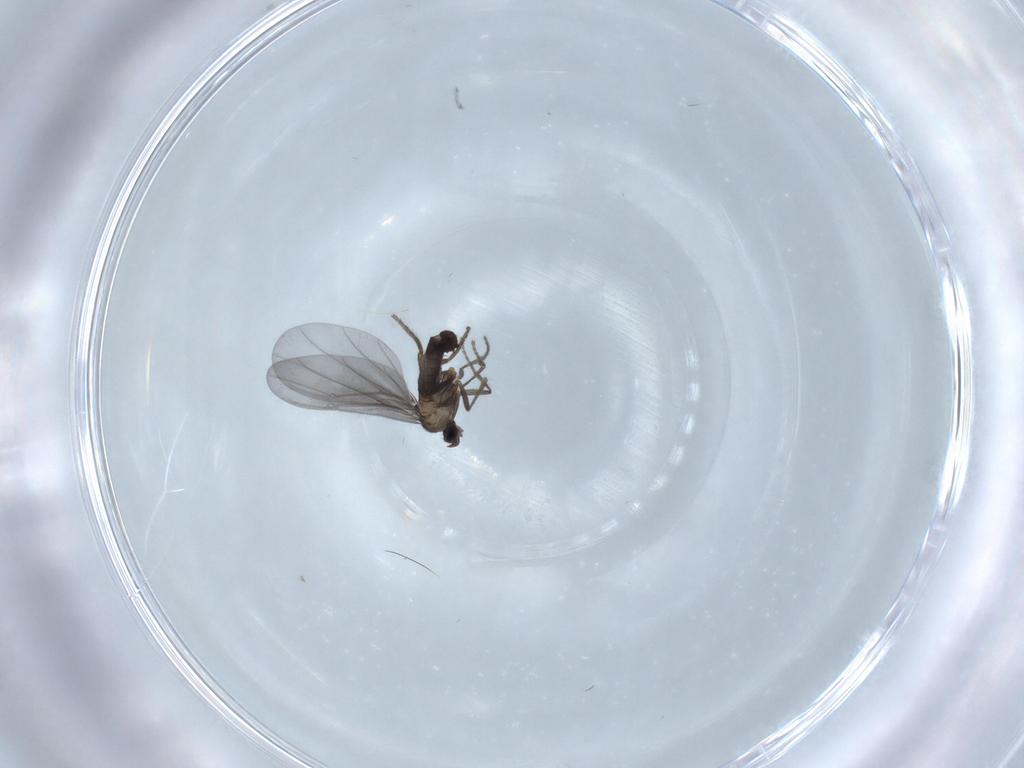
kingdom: Animalia
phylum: Arthropoda
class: Insecta
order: Diptera
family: Phoridae
